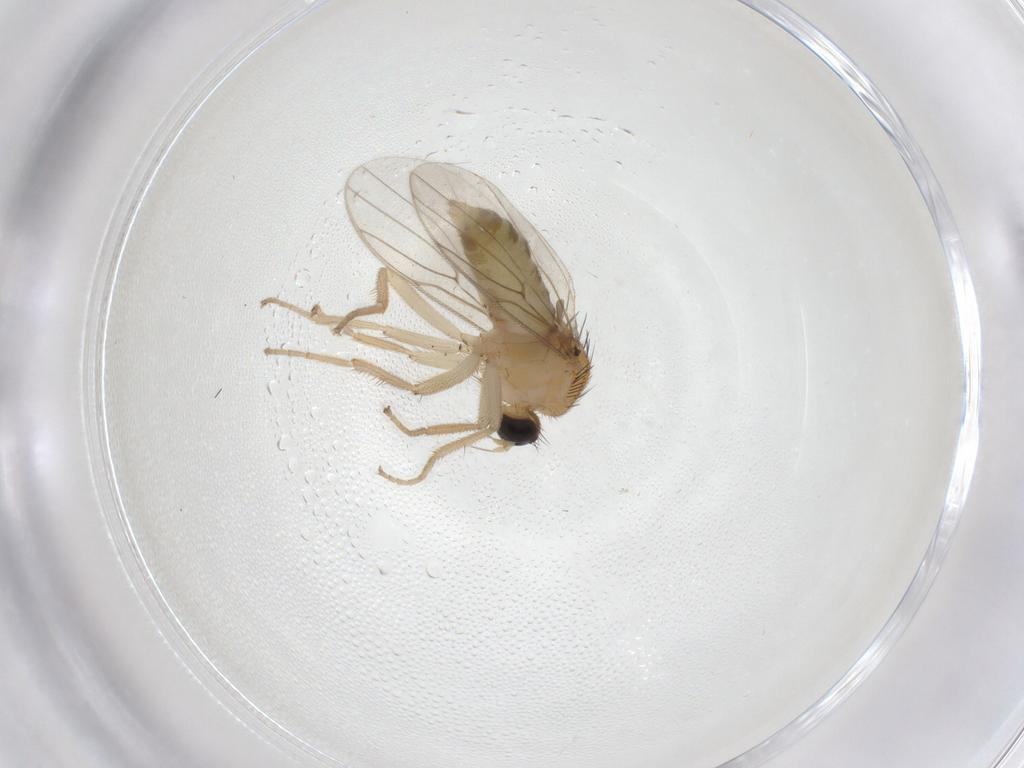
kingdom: Animalia
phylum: Arthropoda
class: Insecta
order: Diptera
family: Hybotidae
